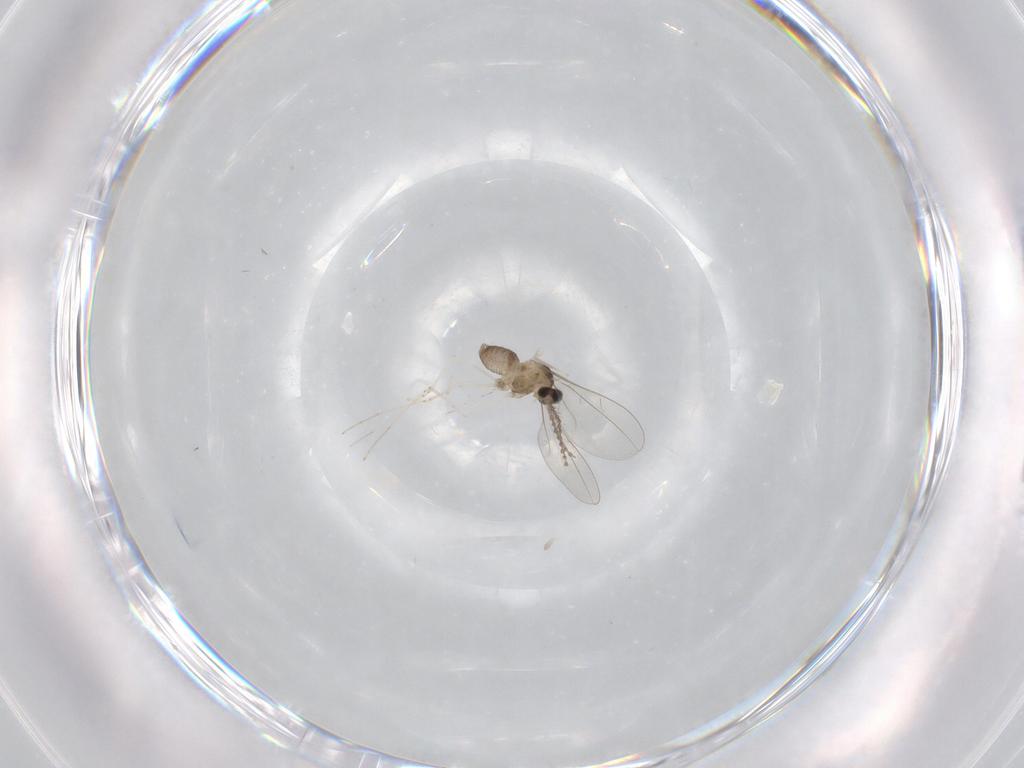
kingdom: Animalia
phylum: Arthropoda
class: Insecta
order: Diptera
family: Cecidomyiidae
